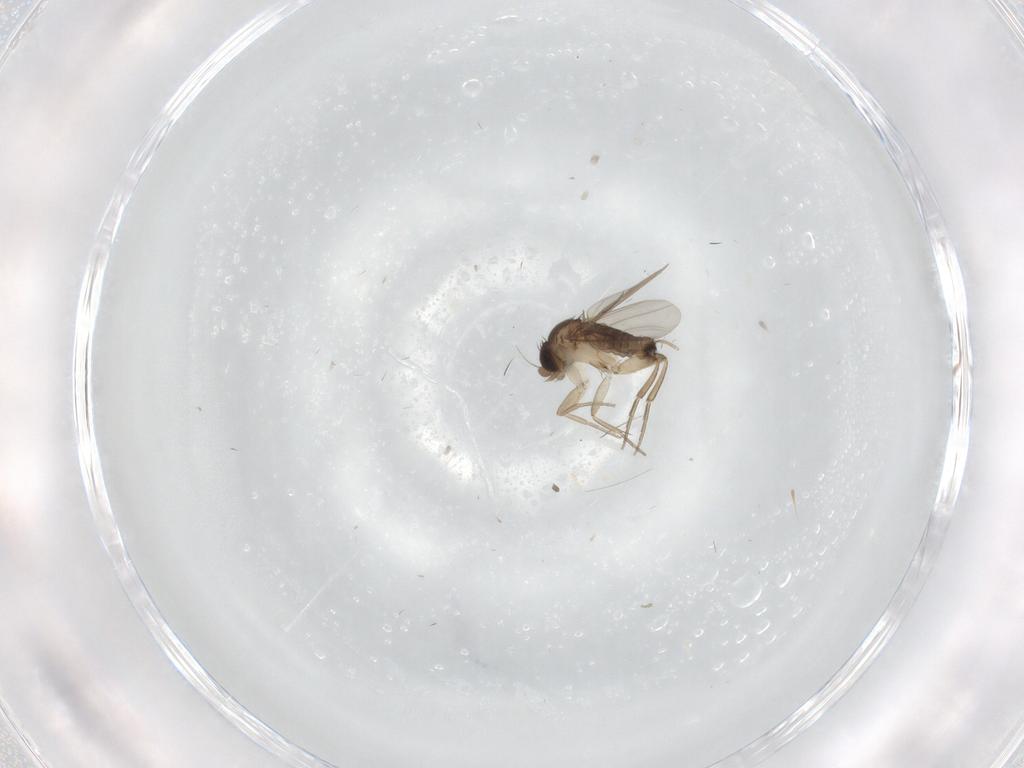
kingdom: Animalia
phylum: Arthropoda
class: Insecta
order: Diptera
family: Phoridae
